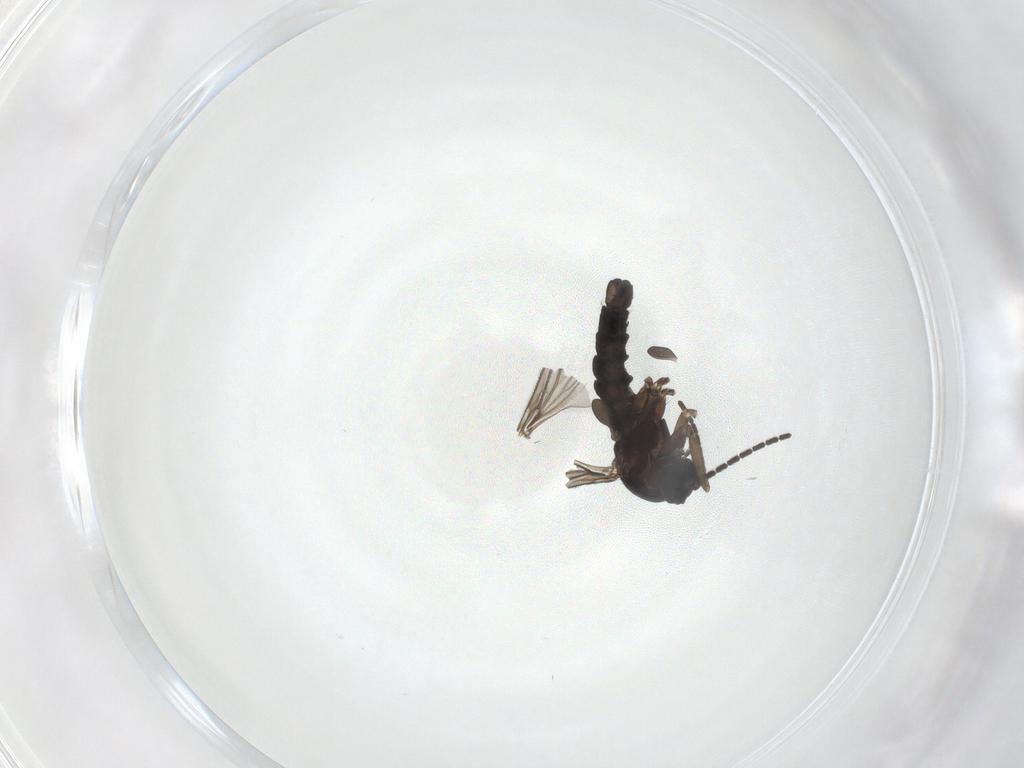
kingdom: Animalia
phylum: Arthropoda
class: Insecta
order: Diptera
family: Sciaridae
